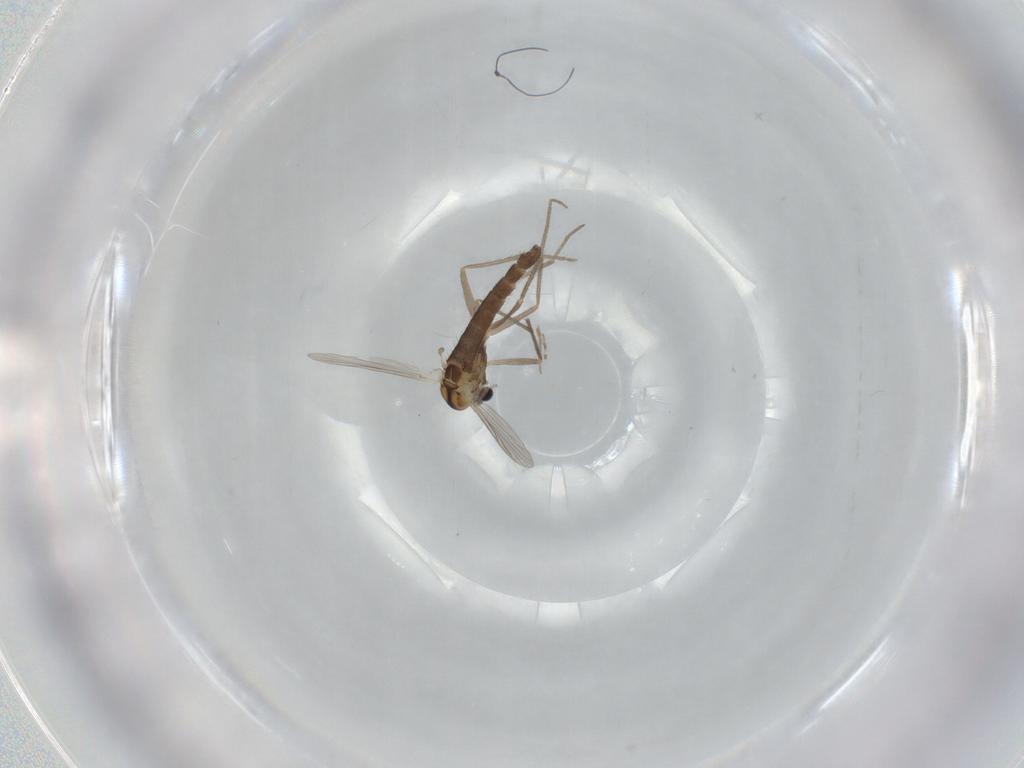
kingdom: Animalia
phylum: Arthropoda
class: Insecta
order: Diptera
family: Chironomidae
